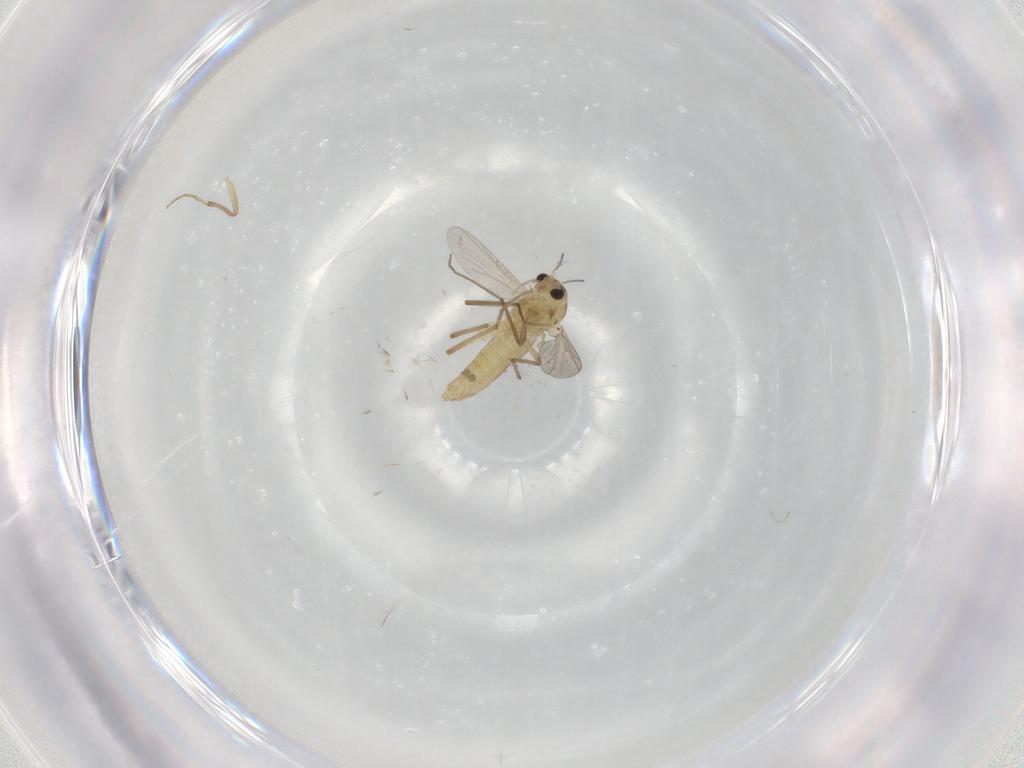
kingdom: Animalia
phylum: Arthropoda
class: Insecta
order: Diptera
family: Chironomidae
